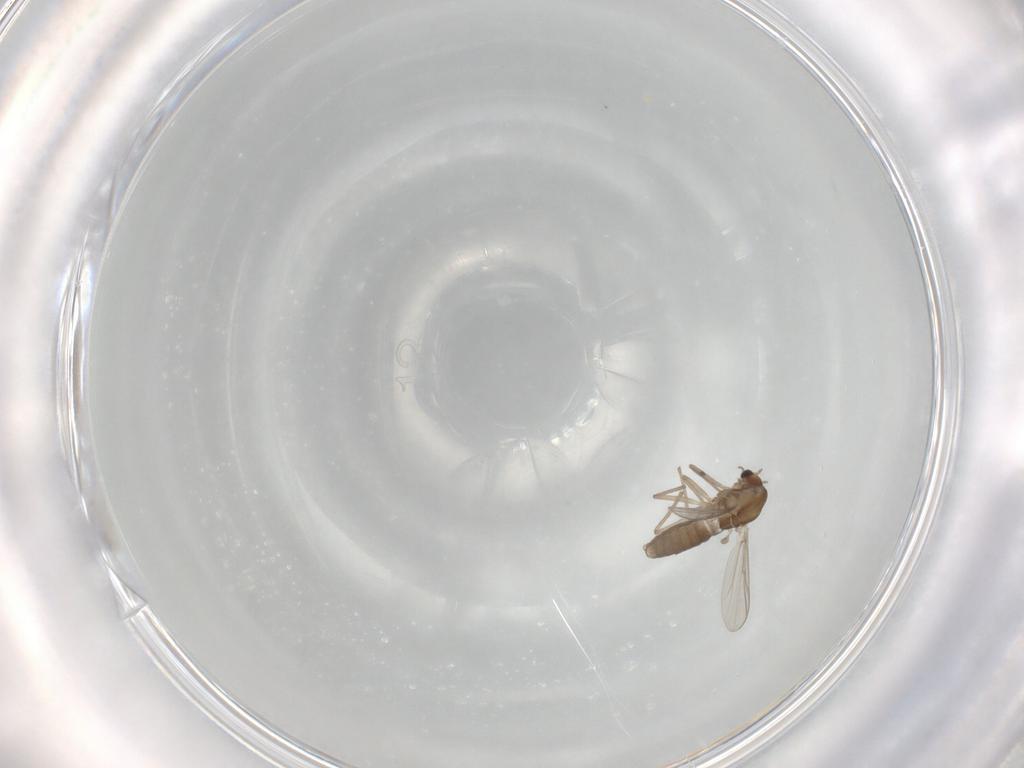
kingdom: Animalia
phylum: Arthropoda
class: Insecta
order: Diptera
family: Cecidomyiidae
